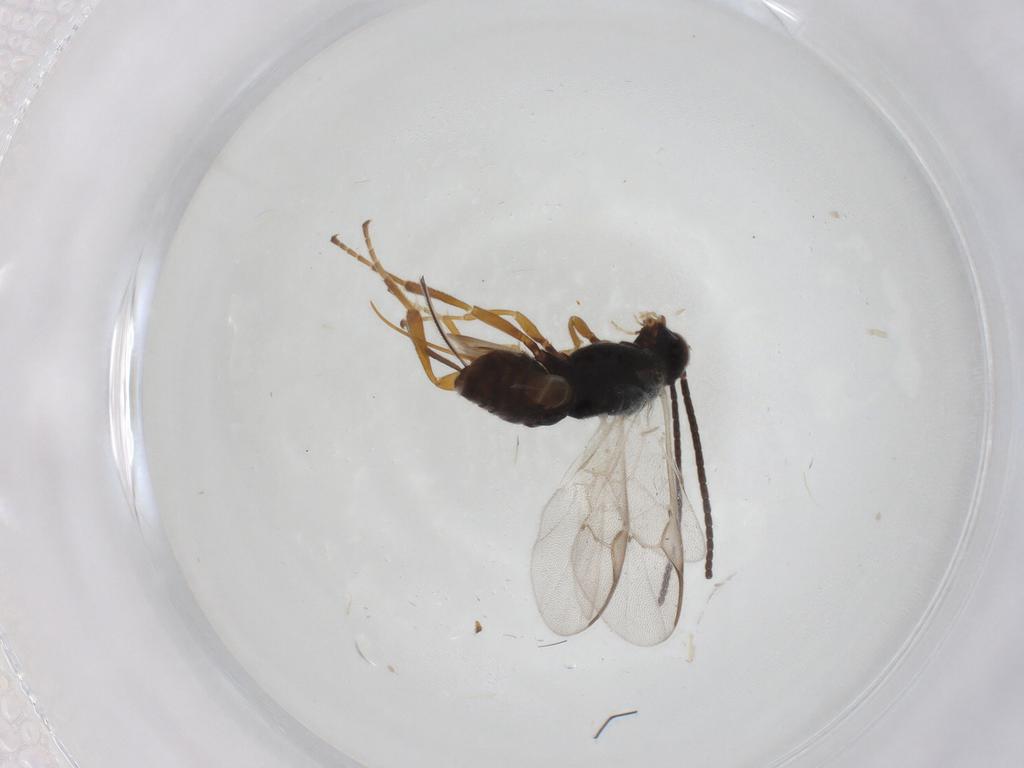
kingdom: Animalia
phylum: Arthropoda
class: Insecta
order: Hymenoptera
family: Braconidae
